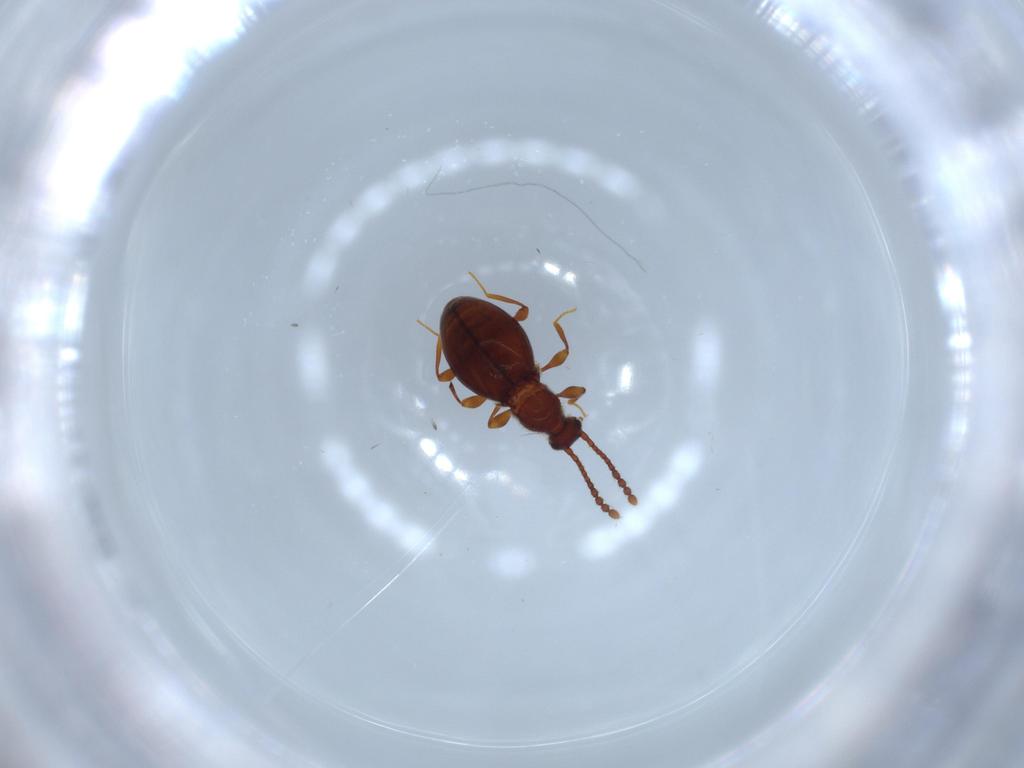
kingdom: Animalia
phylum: Arthropoda
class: Insecta
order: Coleoptera
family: Staphylinidae
